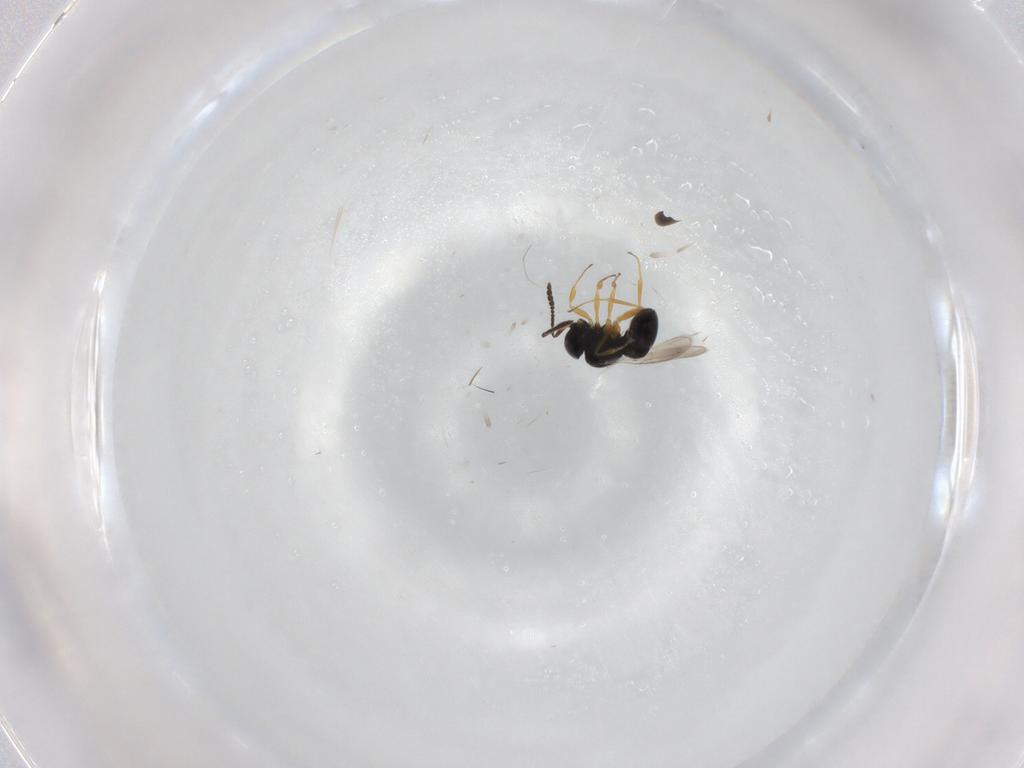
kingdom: Animalia
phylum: Arthropoda
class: Insecta
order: Hymenoptera
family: Scelionidae
